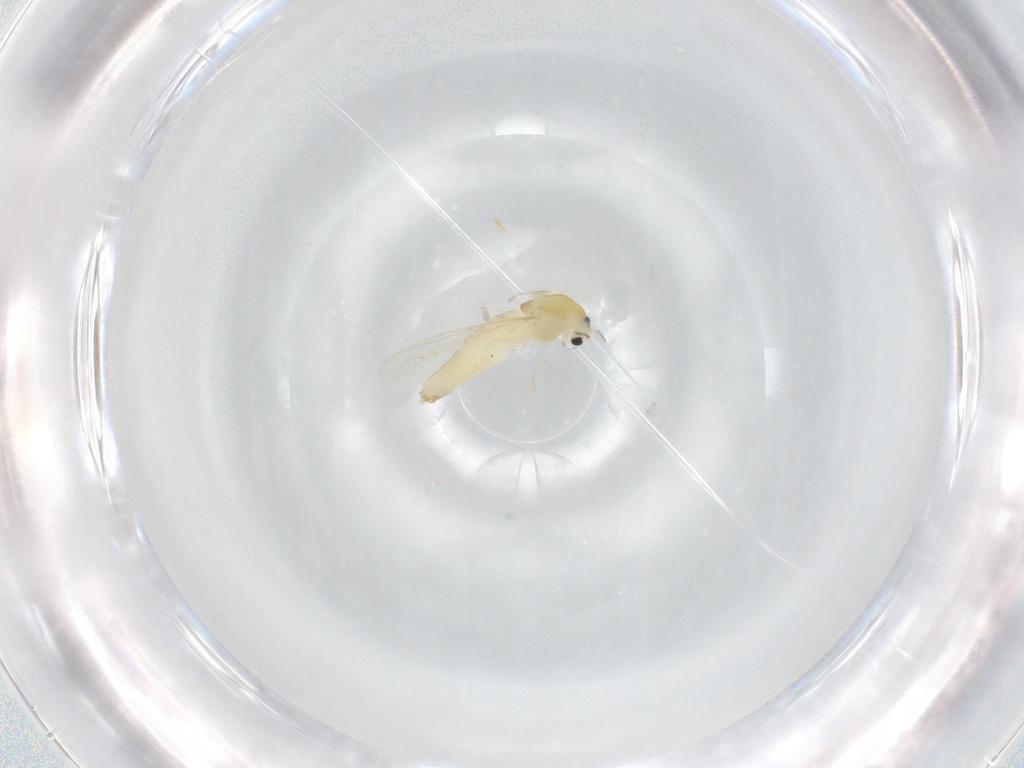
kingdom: Animalia
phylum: Arthropoda
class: Insecta
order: Diptera
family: Chironomidae
